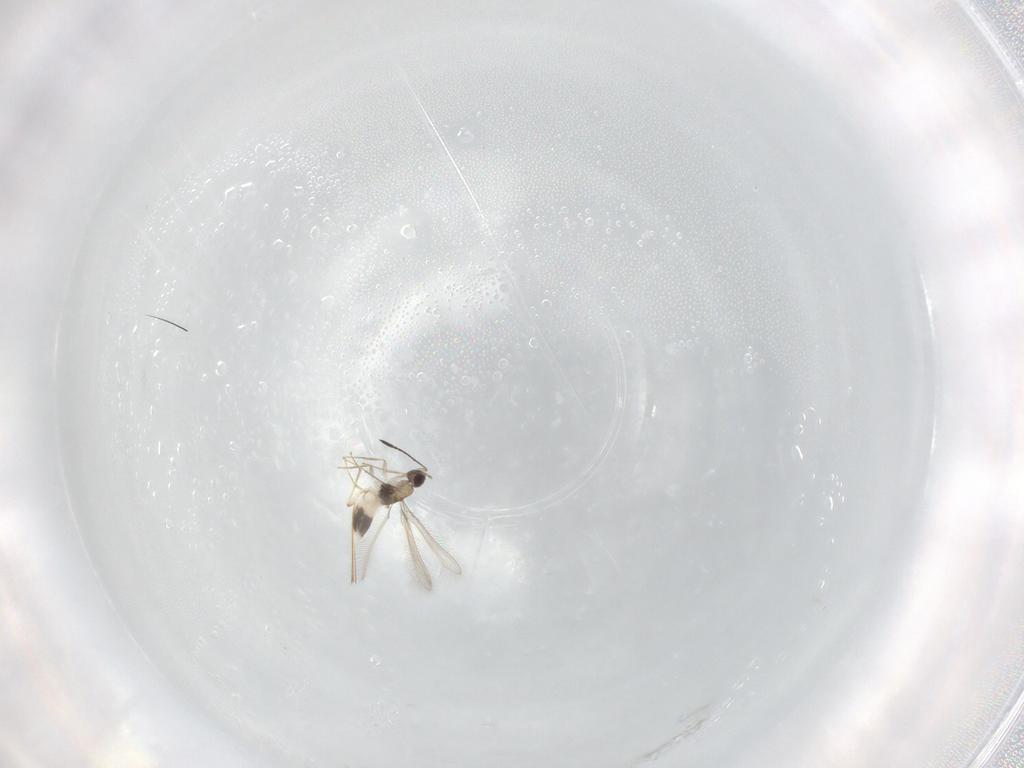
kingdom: Animalia
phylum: Arthropoda
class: Insecta
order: Hymenoptera
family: Mymaridae
